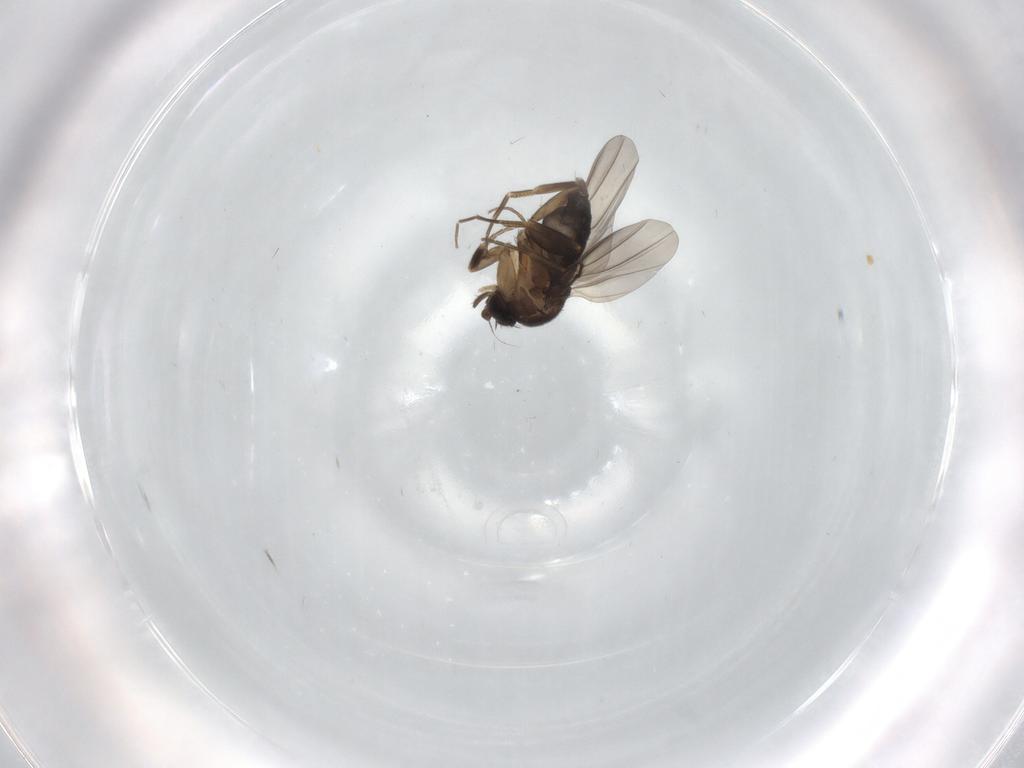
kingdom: Animalia
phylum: Arthropoda
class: Insecta
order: Diptera
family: Phoridae
